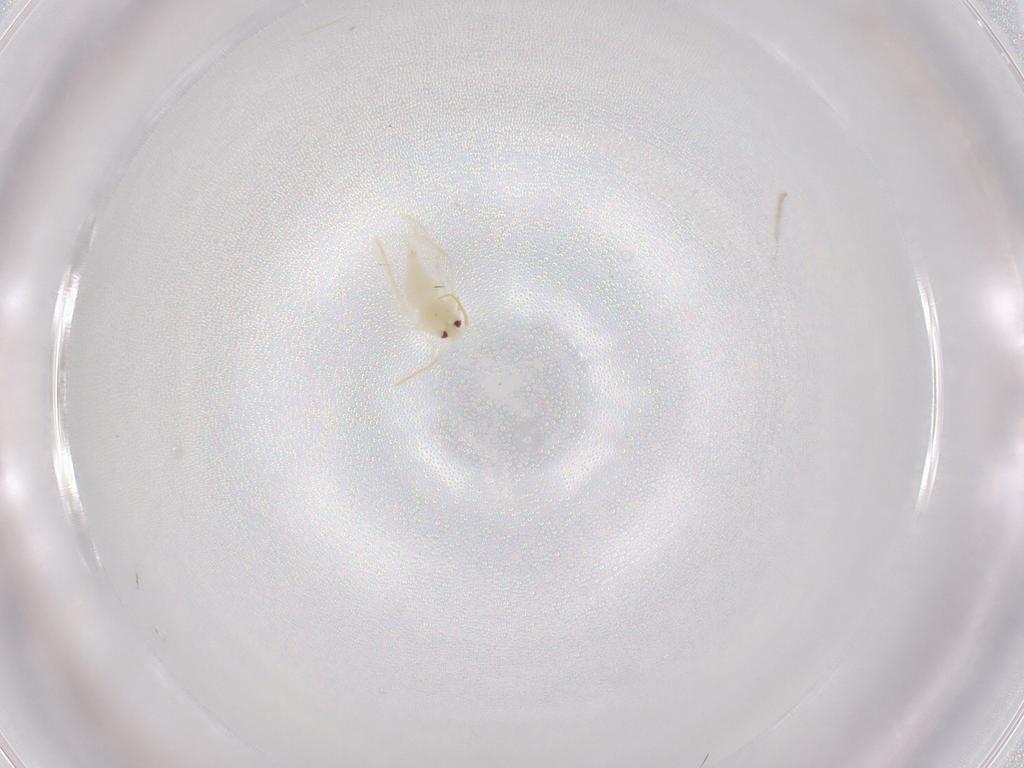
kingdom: Animalia
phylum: Arthropoda
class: Insecta
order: Hemiptera
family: Aleyrodidae
